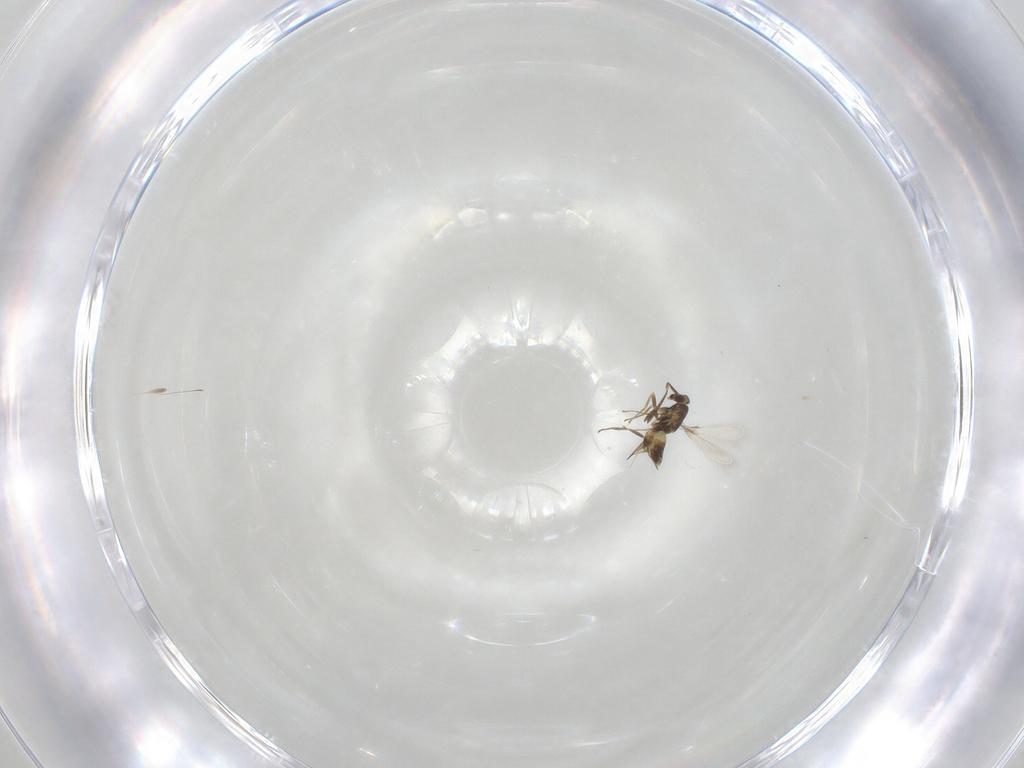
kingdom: Animalia
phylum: Arthropoda
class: Insecta
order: Hymenoptera
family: Mymaridae
